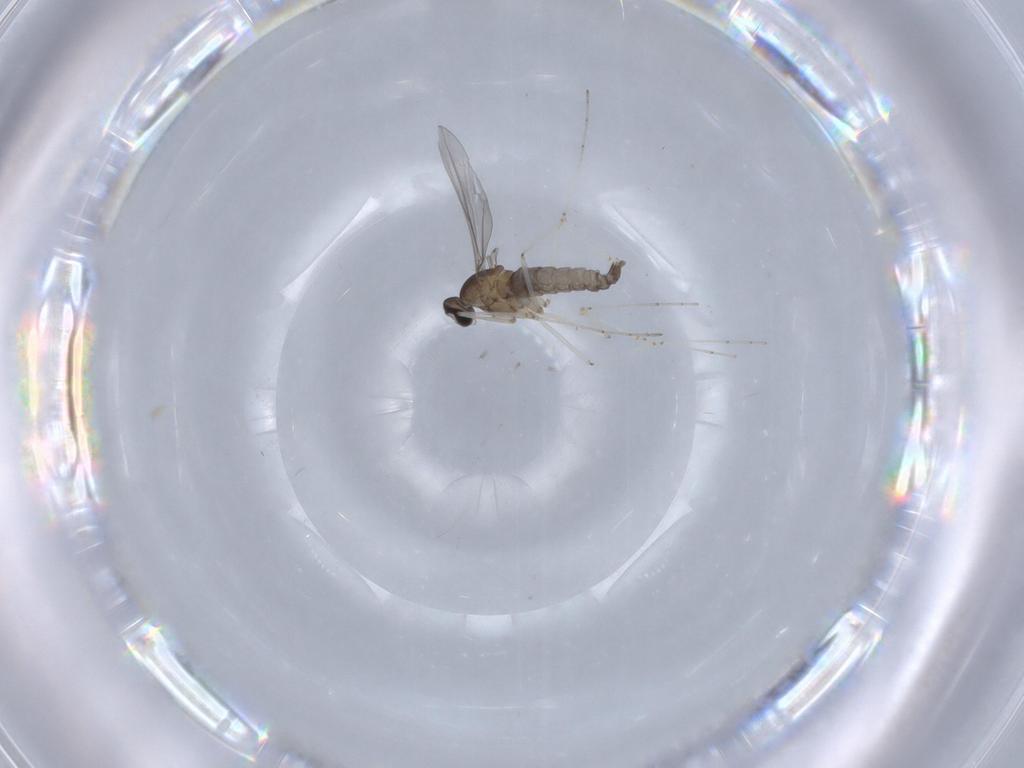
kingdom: Animalia
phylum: Arthropoda
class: Insecta
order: Diptera
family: Cecidomyiidae
